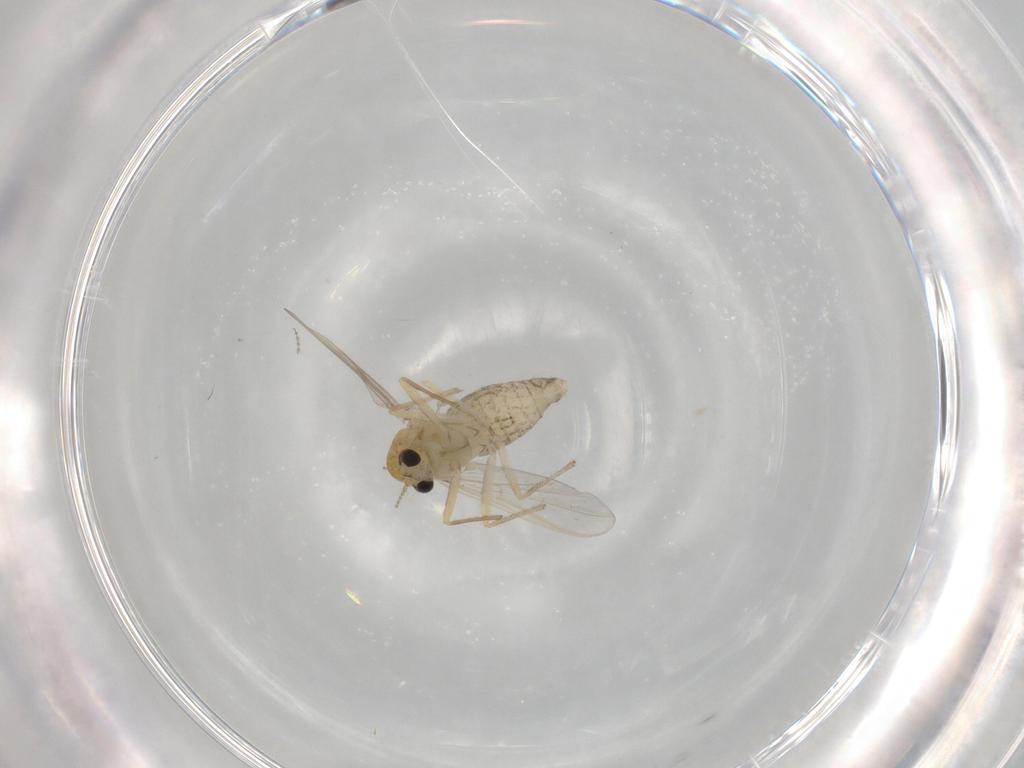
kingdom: Animalia
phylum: Arthropoda
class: Insecta
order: Diptera
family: Chironomidae
